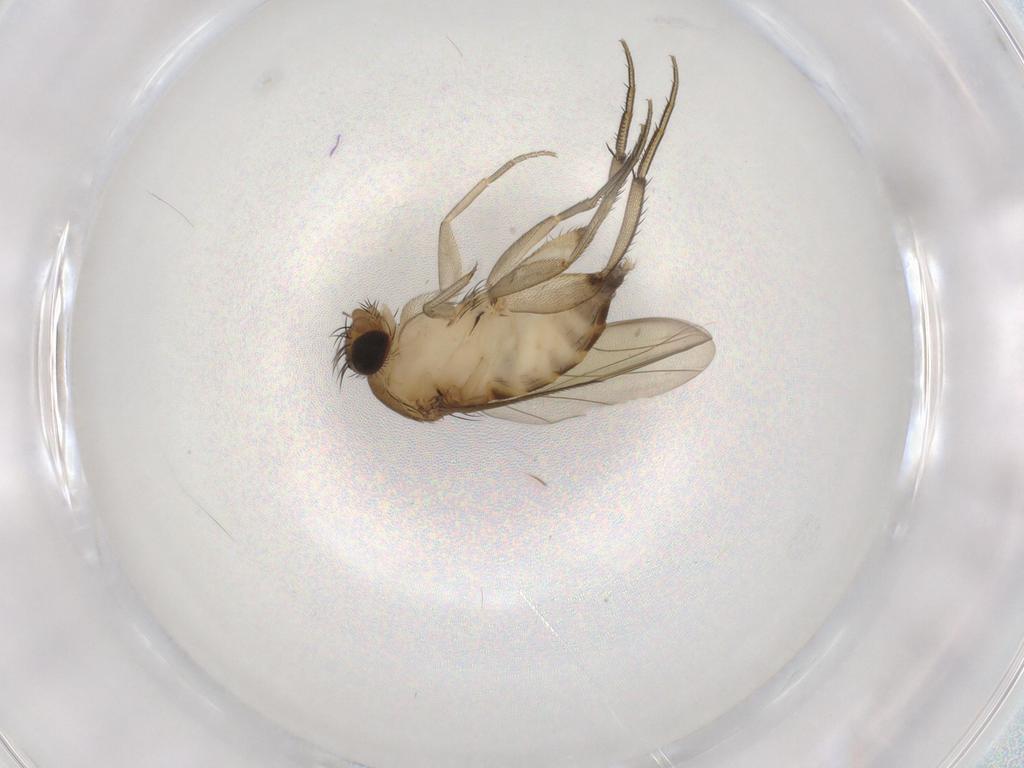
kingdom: Animalia
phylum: Arthropoda
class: Insecta
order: Diptera
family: Phoridae
